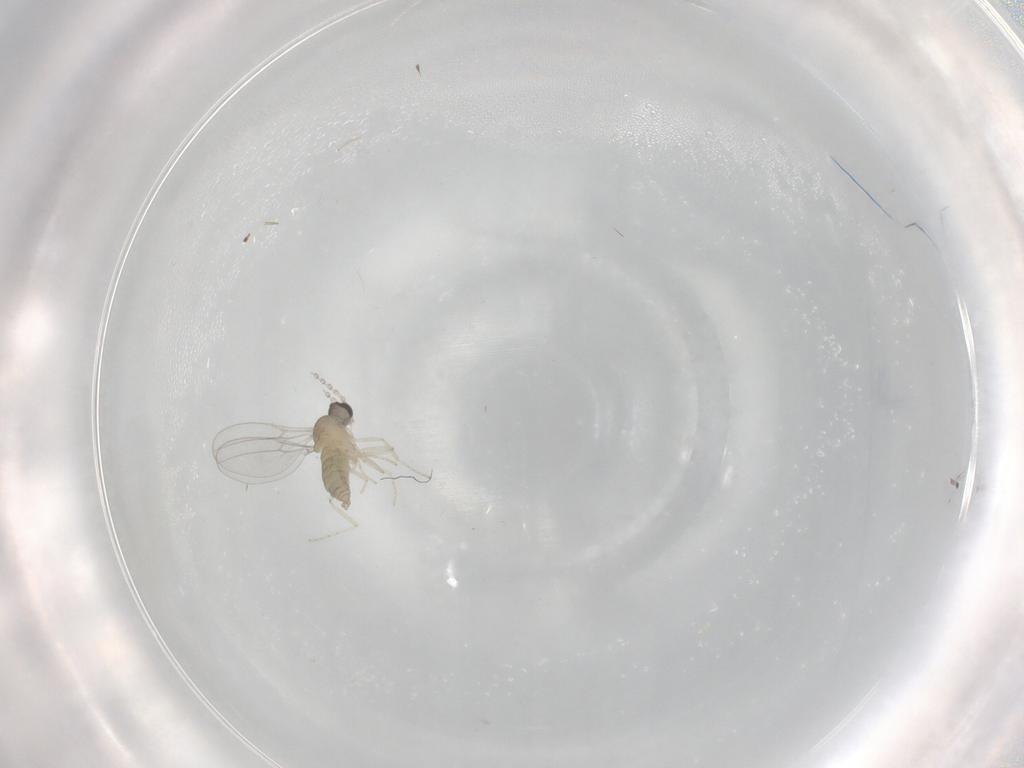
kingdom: Animalia
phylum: Arthropoda
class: Insecta
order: Diptera
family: Cecidomyiidae
